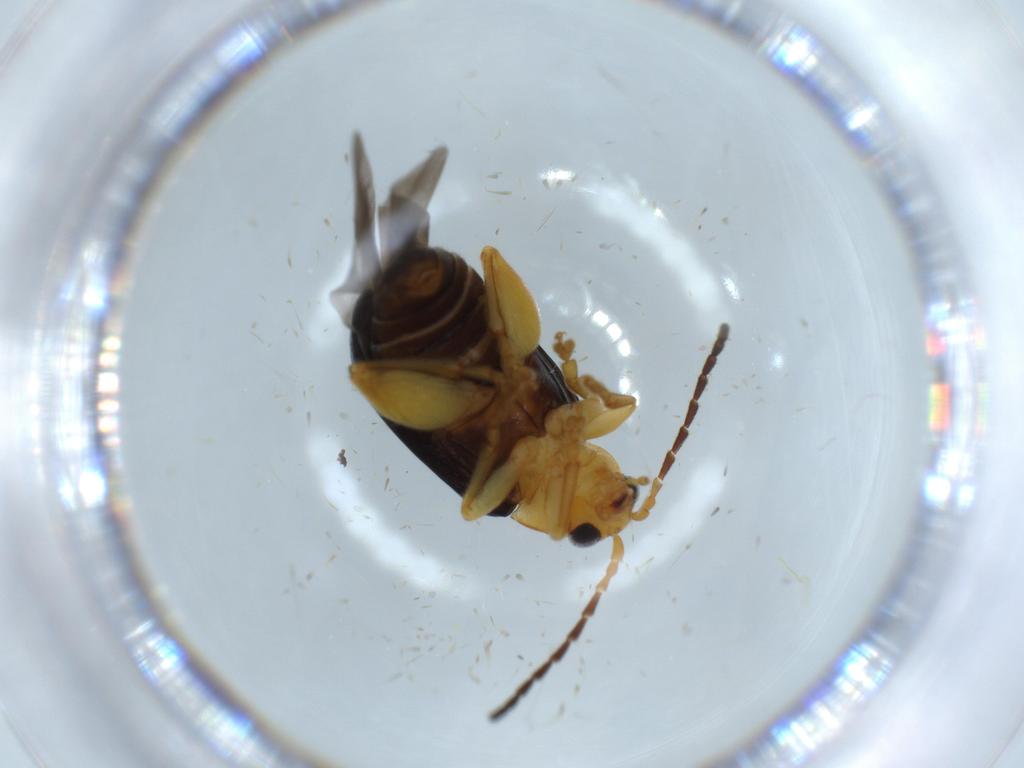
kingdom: Animalia
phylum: Arthropoda
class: Insecta
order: Coleoptera
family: Chrysomelidae
